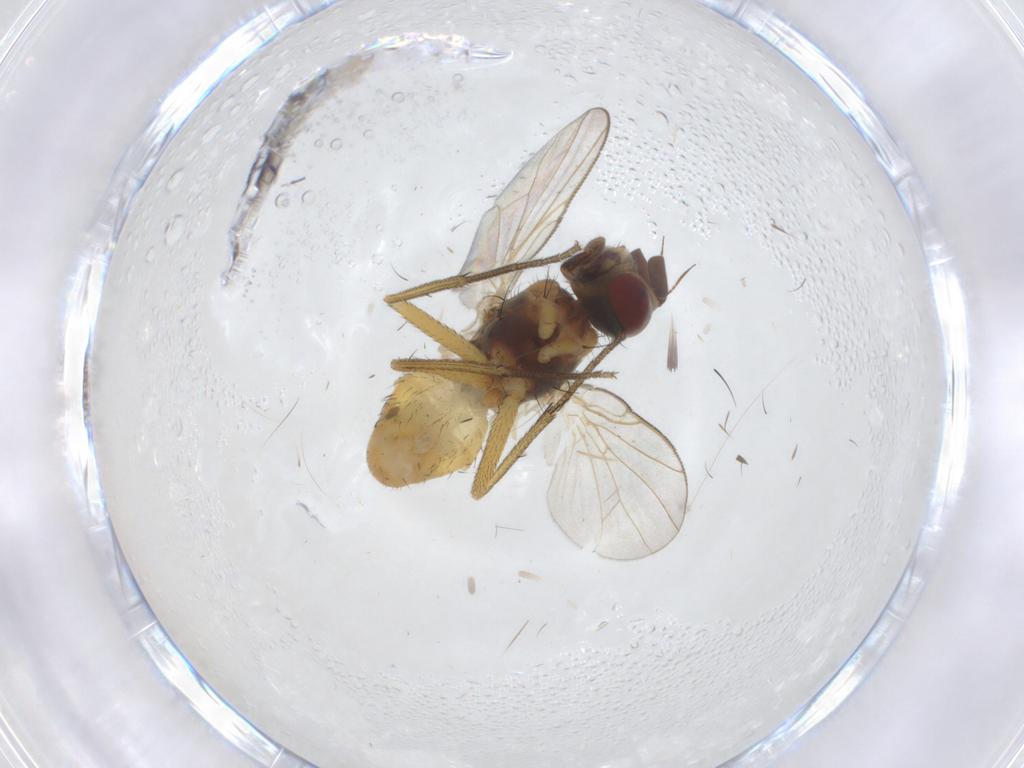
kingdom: Animalia
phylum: Arthropoda
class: Insecta
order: Diptera
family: Muscidae
